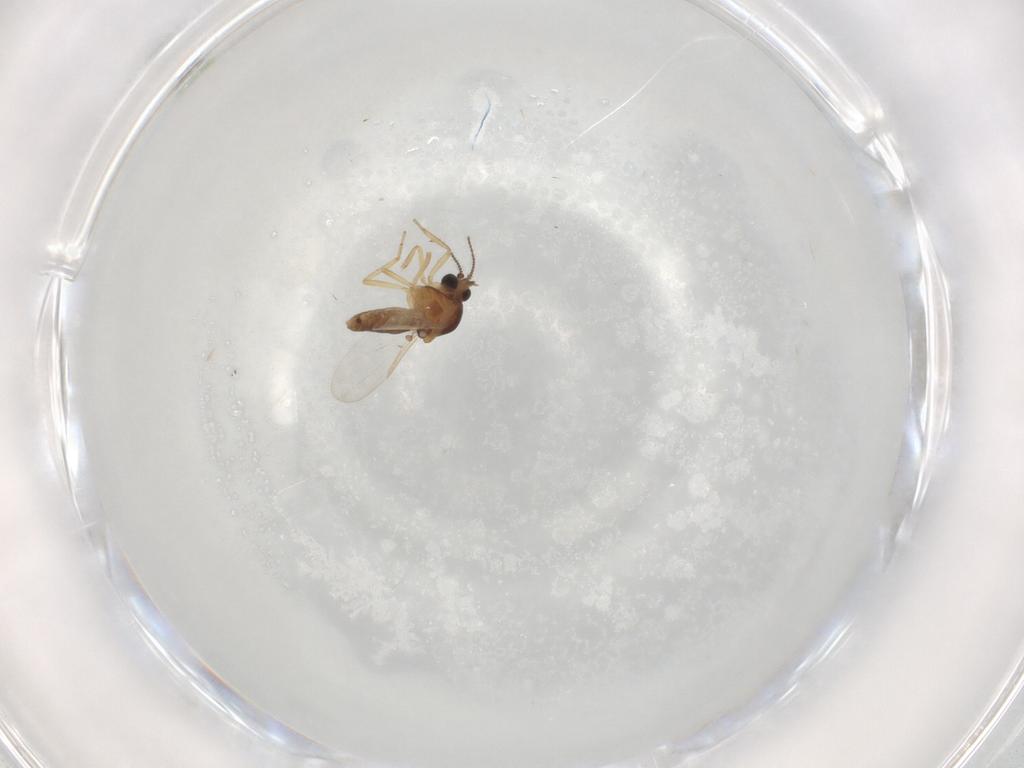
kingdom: Animalia
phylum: Arthropoda
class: Insecta
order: Diptera
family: Ceratopogonidae
